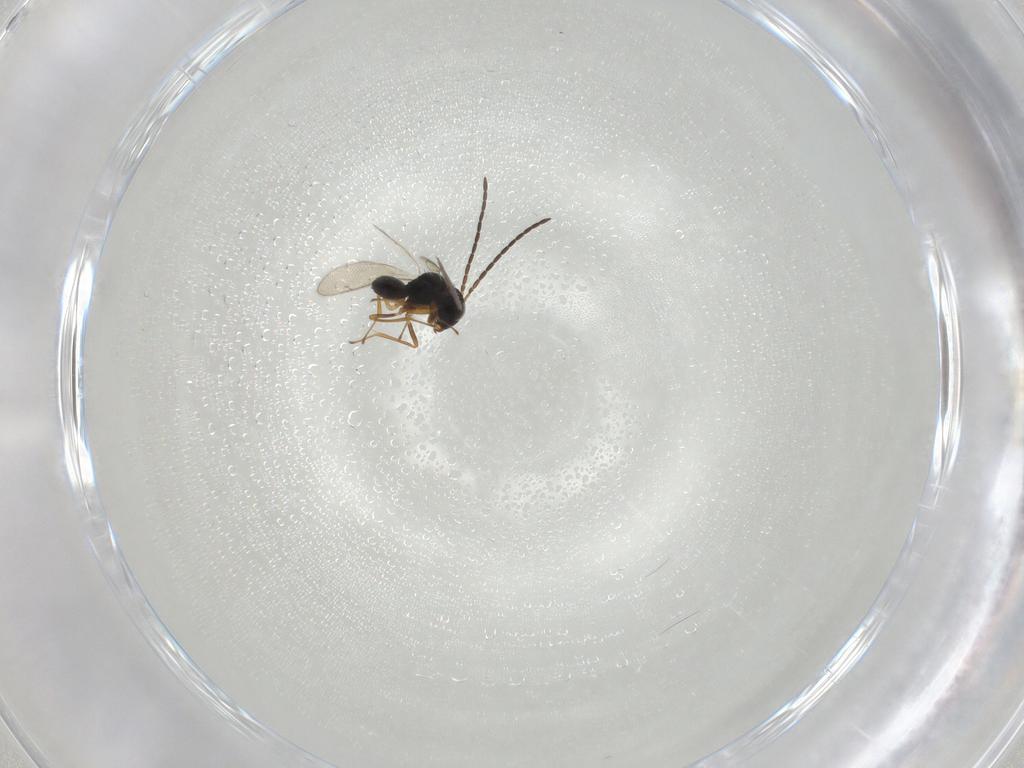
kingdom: Animalia
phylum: Arthropoda
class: Insecta
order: Hymenoptera
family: Diparidae
